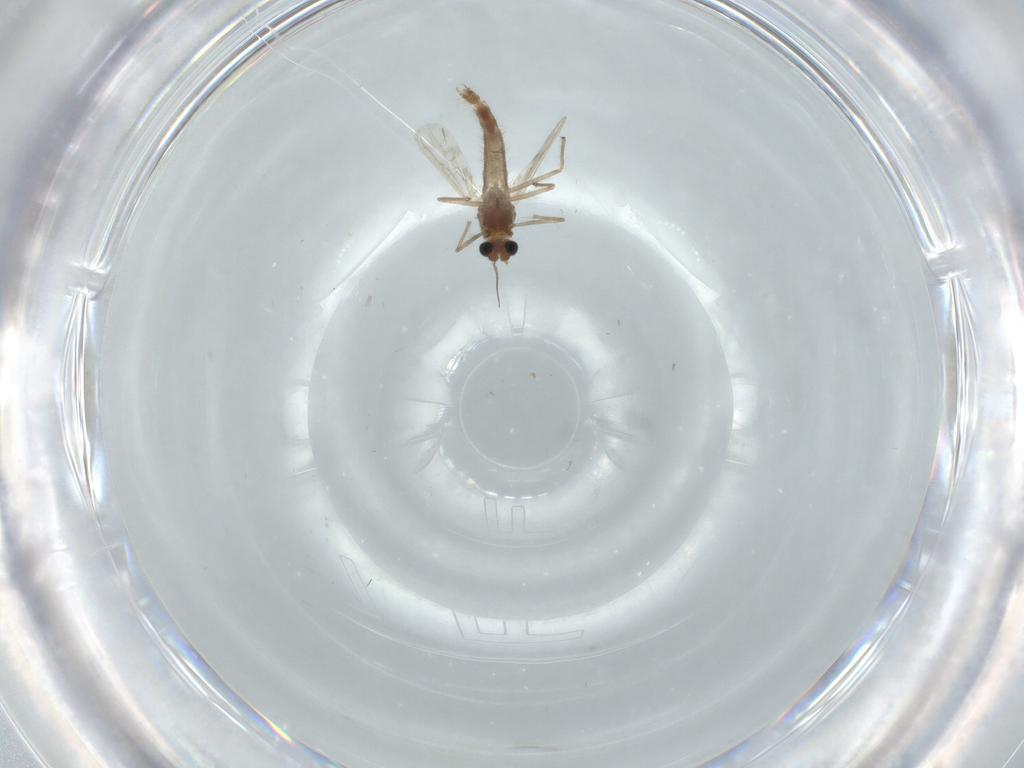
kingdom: Animalia
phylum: Arthropoda
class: Insecta
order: Diptera
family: Chironomidae
